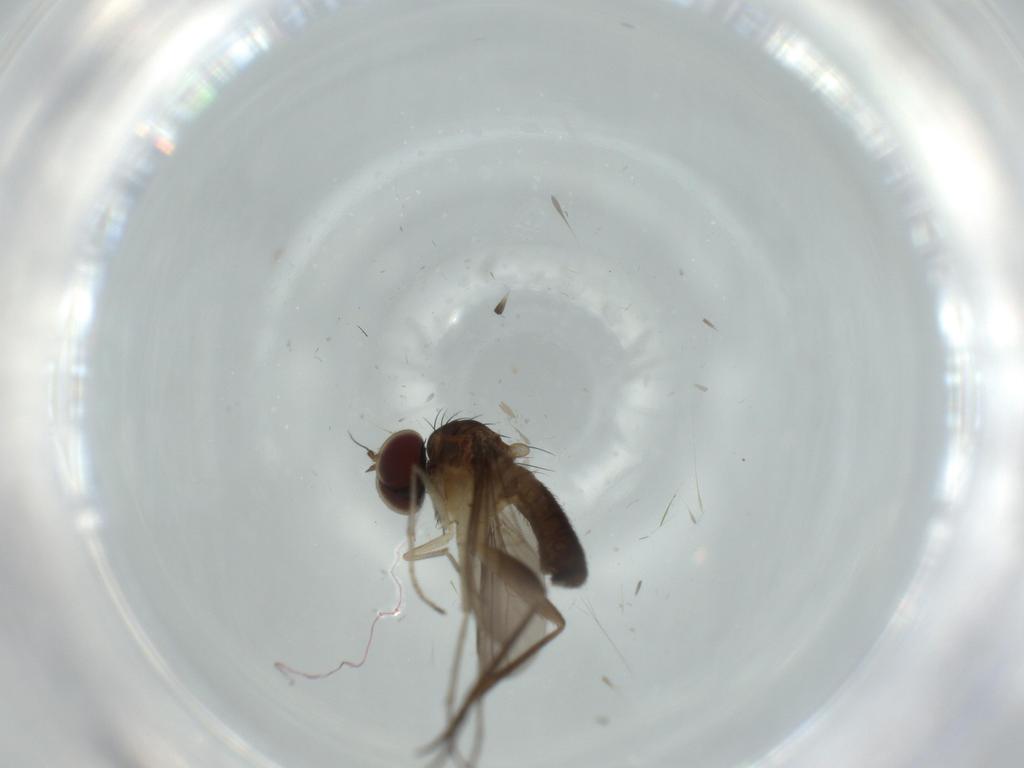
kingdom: Animalia
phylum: Arthropoda
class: Insecta
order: Diptera
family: Dolichopodidae
